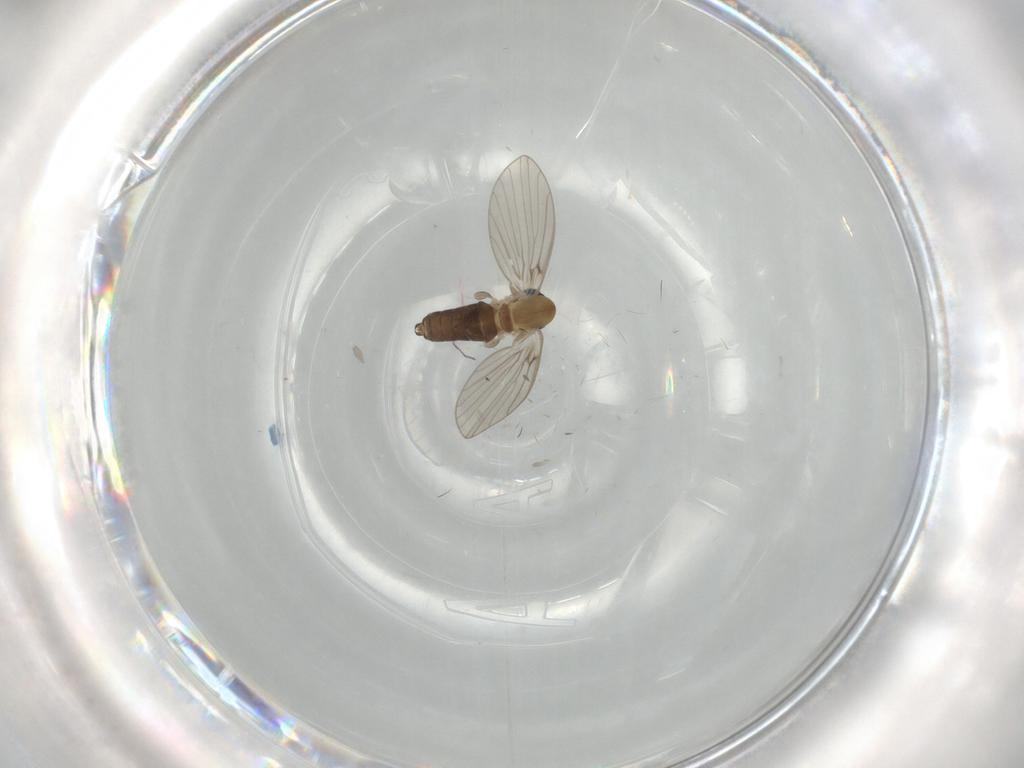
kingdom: Animalia
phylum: Arthropoda
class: Insecta
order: Diptera
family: Psychodidae
